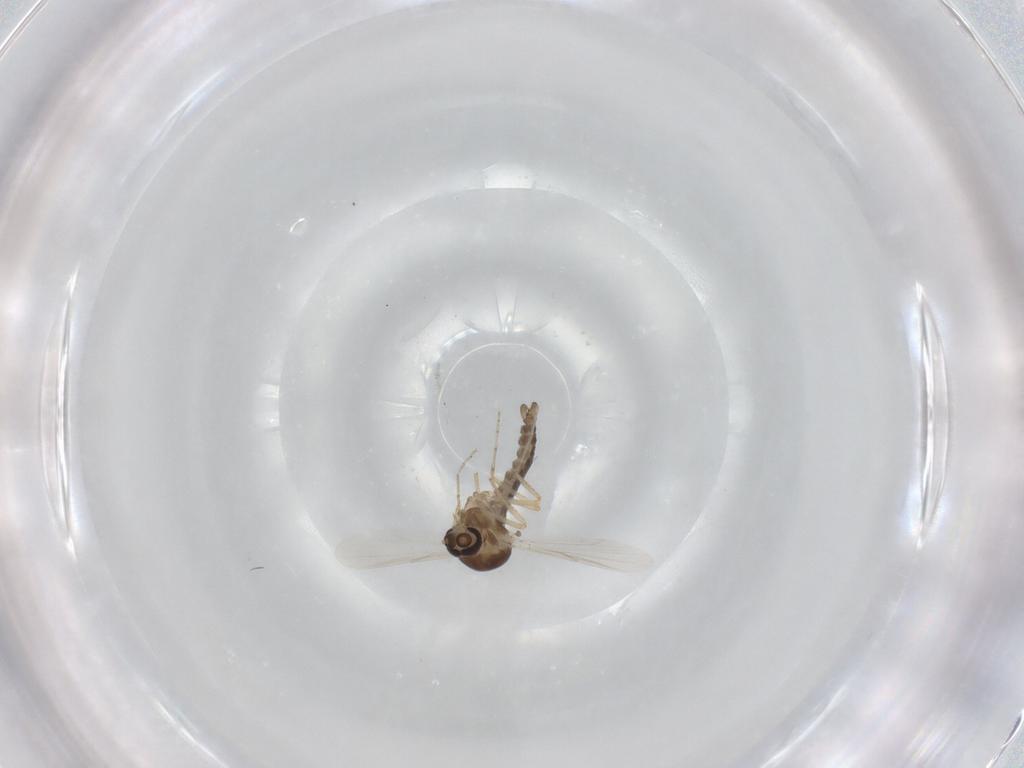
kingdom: Animalia
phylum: Arthropoda
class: Insecta
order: Diptera
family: Ceratopogonidae
